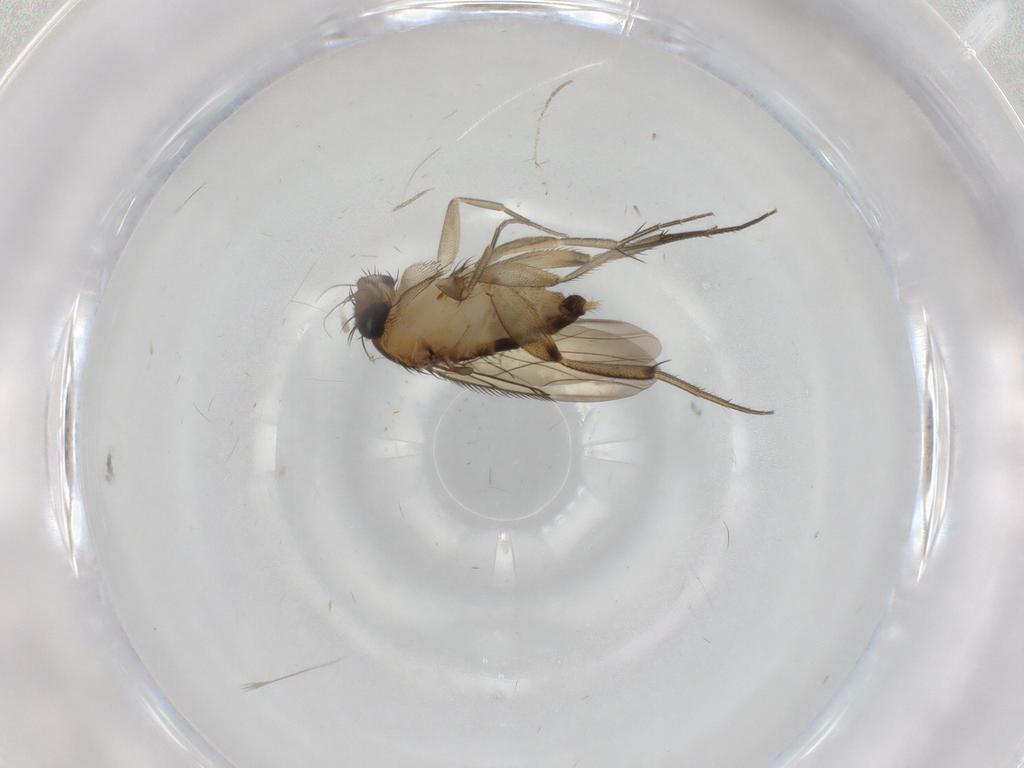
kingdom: Animalia
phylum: Arthropoda
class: Insecta
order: Diptera
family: Phoridae
